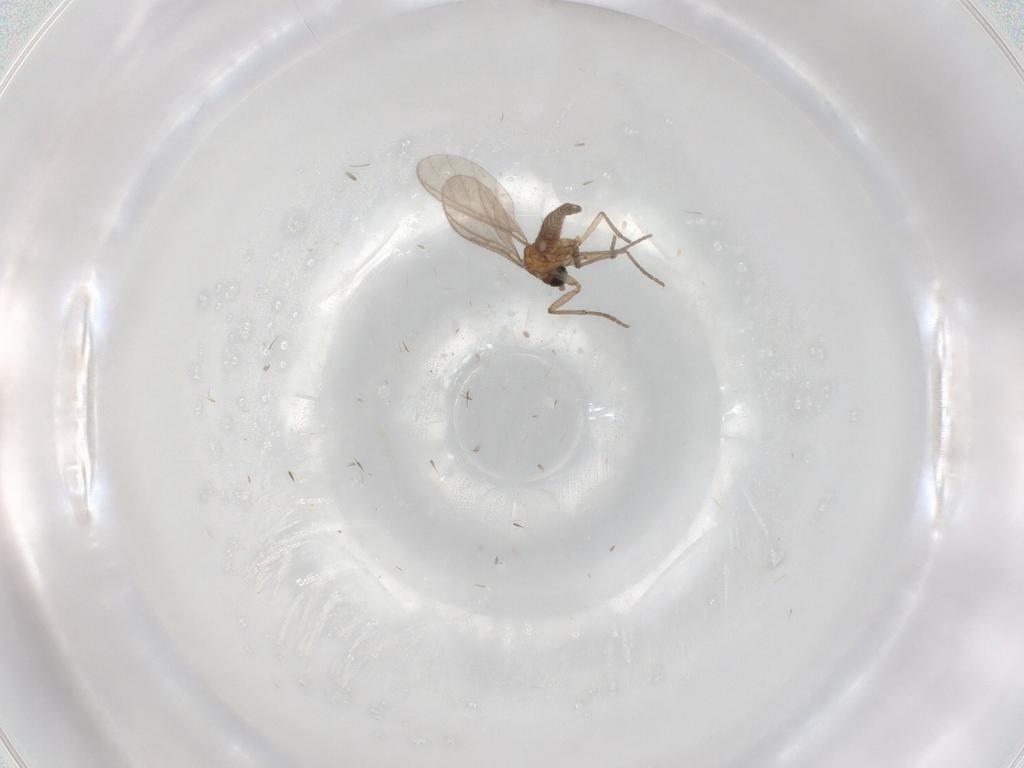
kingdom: Animalia
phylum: Arthropoda
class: Insecta
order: Diptera
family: Sciaridae
